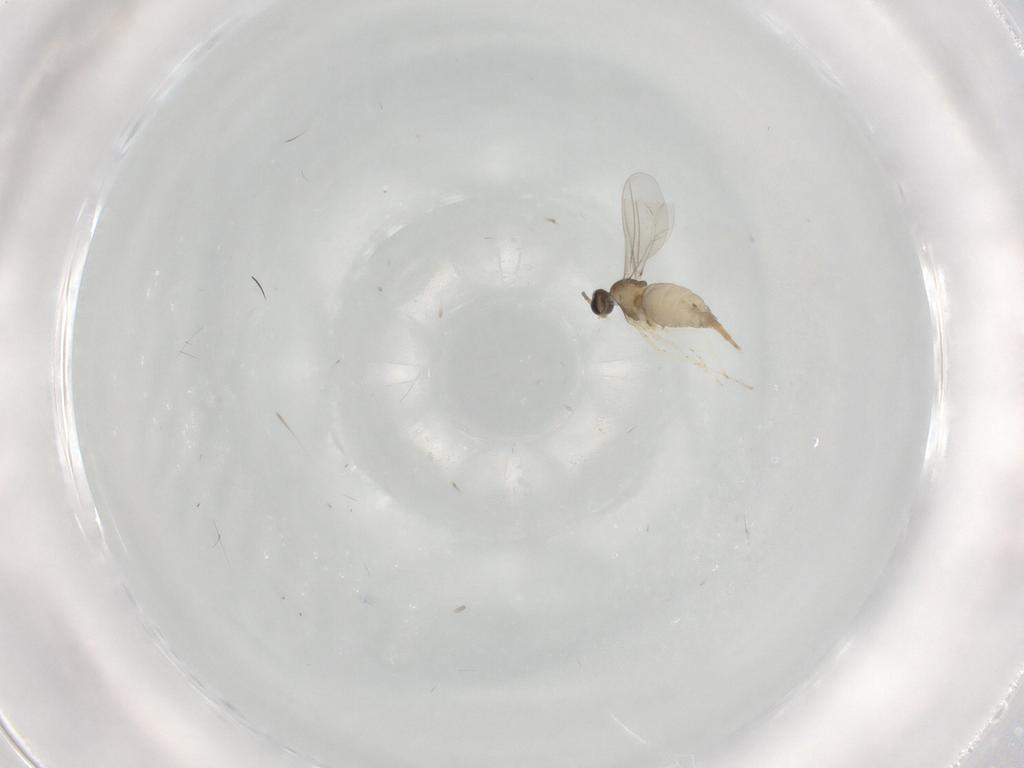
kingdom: Animalia
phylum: Arthropoda
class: Insecta
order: Diptera
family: Cecidomyiidae
